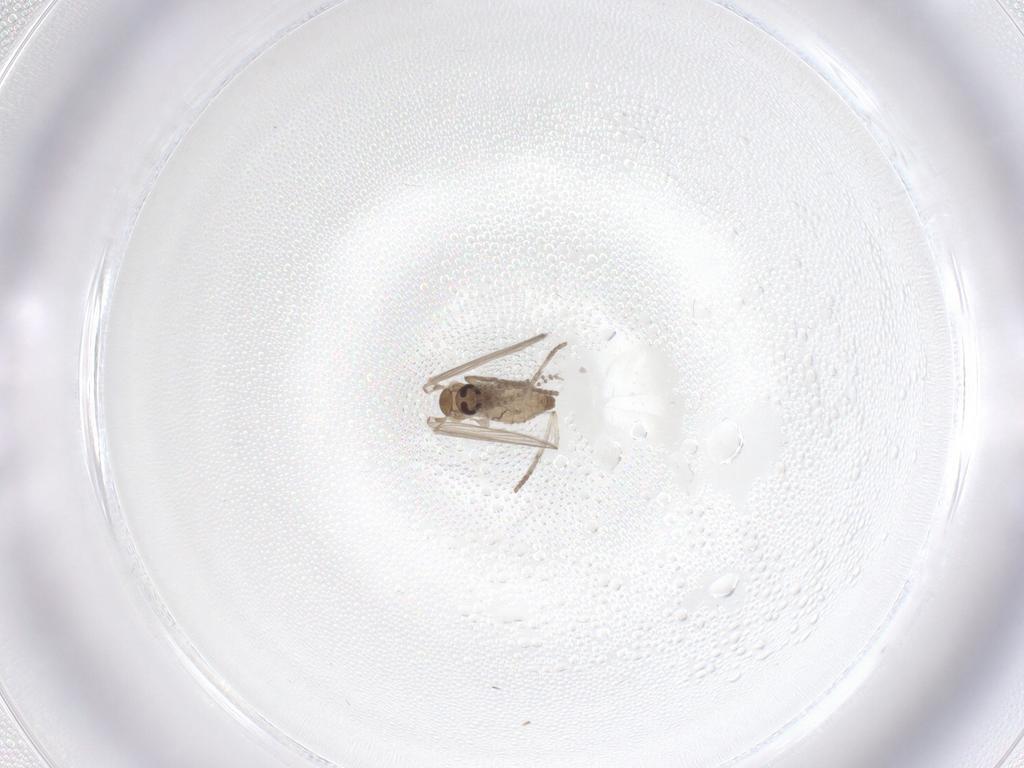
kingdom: Animalia
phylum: Arthropoda
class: Insecta
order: Diptera
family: Psychodidae
